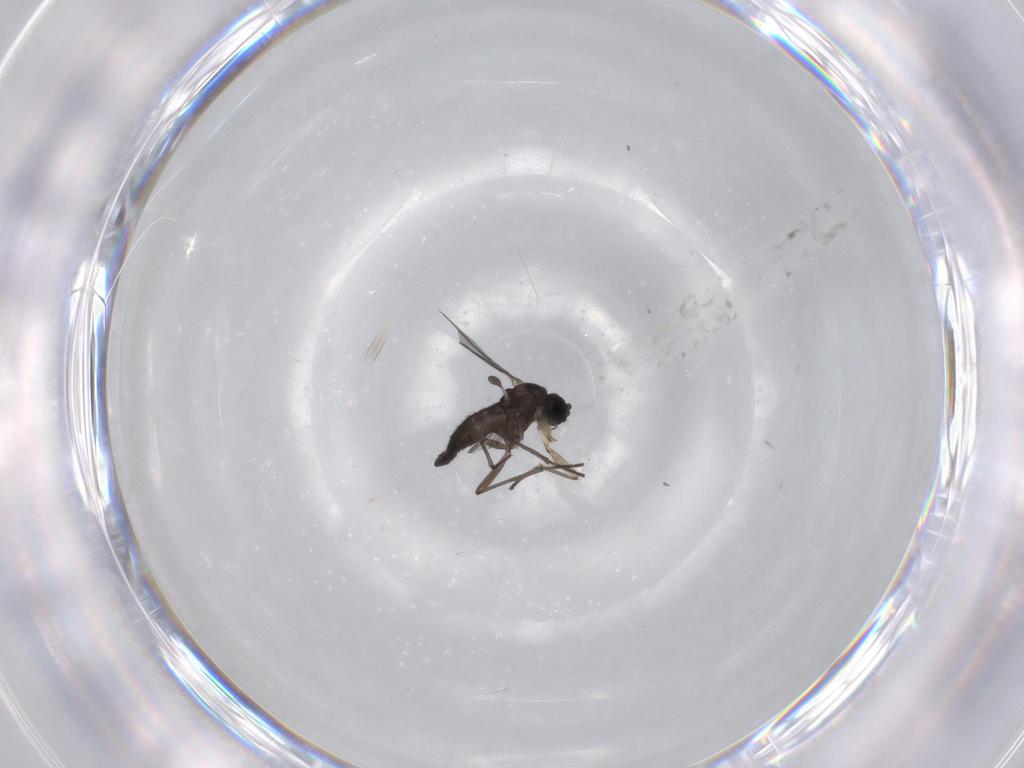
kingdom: Animalia
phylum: Arthropoda
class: Insecta
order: Diptera
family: Sciaridae
